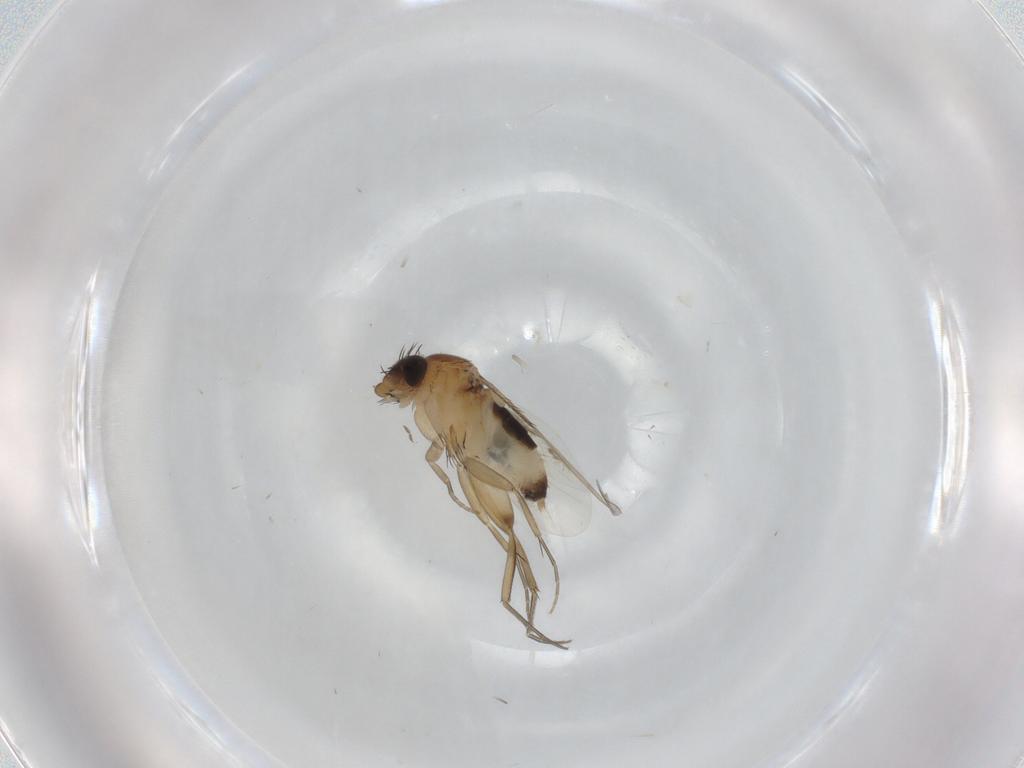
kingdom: Animalia
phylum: Arthropoda
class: Insecta
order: Diptera
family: Phoridae
